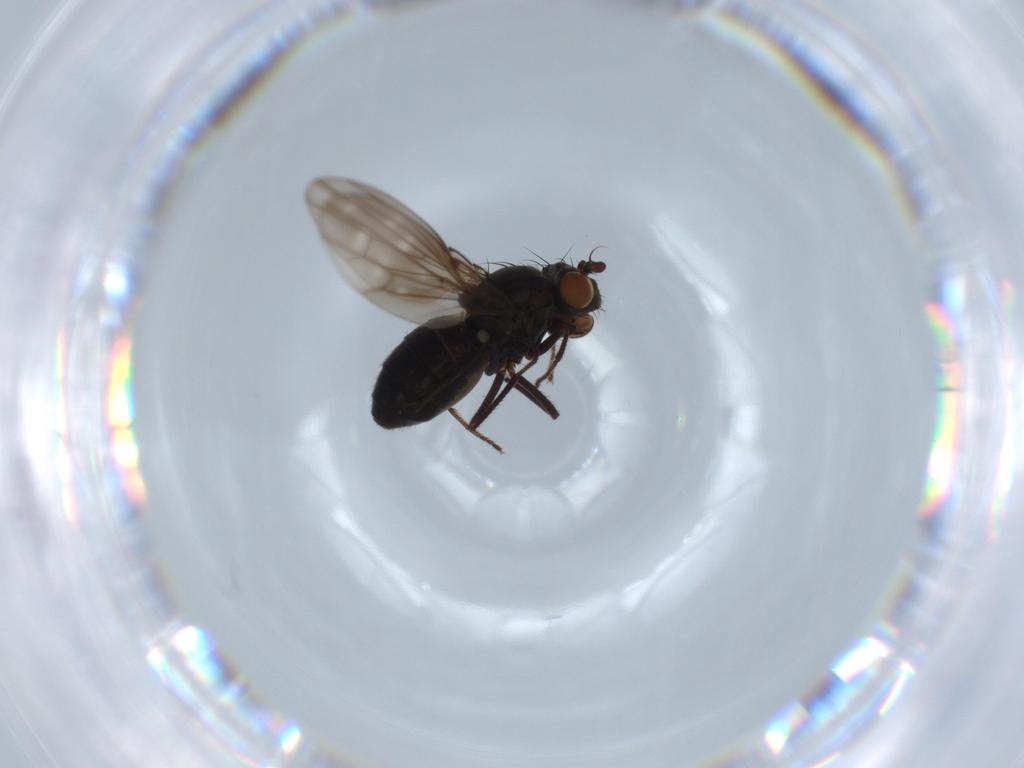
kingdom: Animalia
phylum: Arthropoda
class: Insecta
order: Diptera
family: Ephydridae
